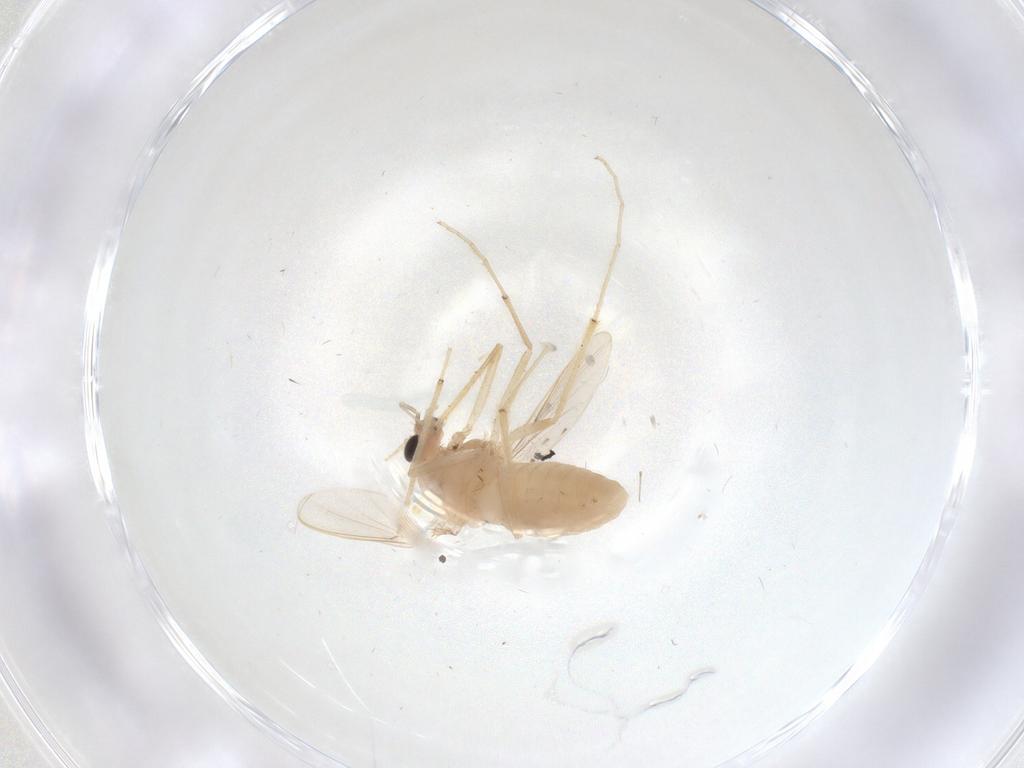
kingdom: Animalia
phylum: Arthropoda
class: Insecta
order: Diptera
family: Chironomidae
